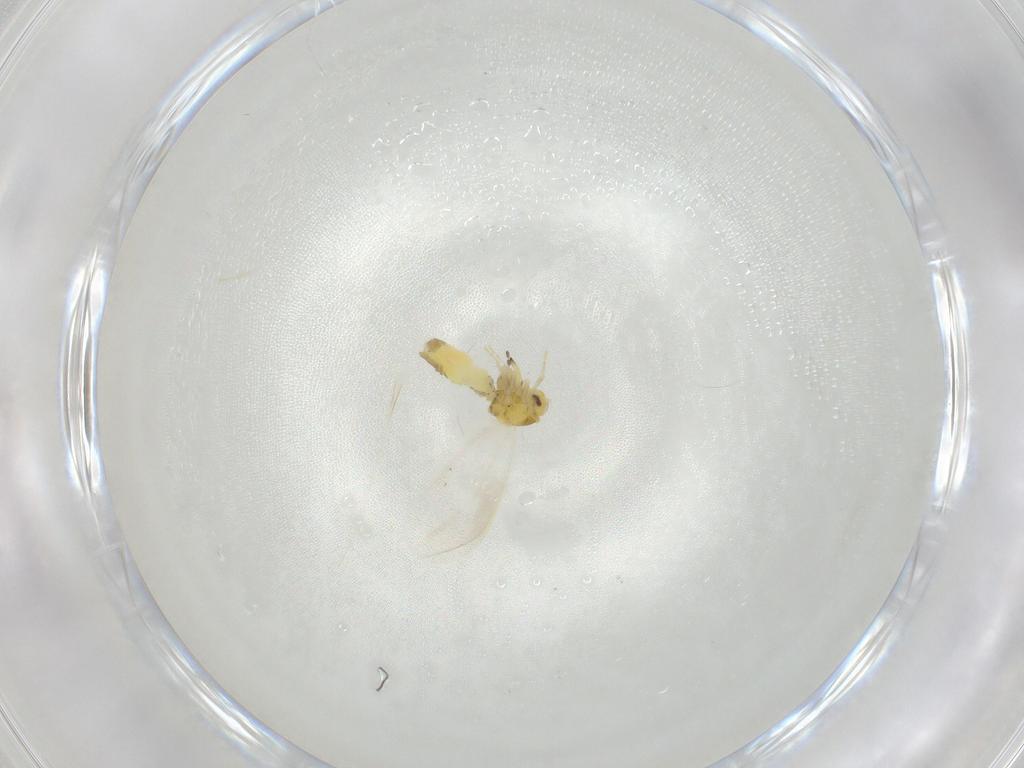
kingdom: Animalia
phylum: Arthropoda
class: Insecta
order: Hemiptera
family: Aleyrodidae
